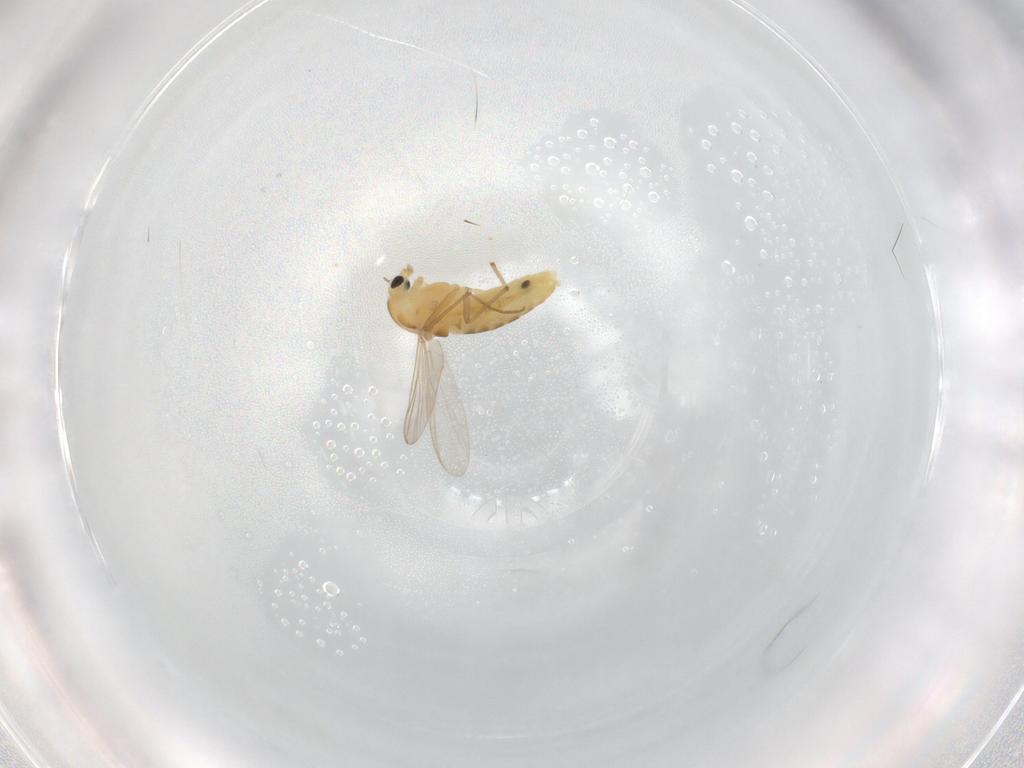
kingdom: Animalia
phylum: Arthropoda
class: Insecta
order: Diptera
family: Chironomidae
